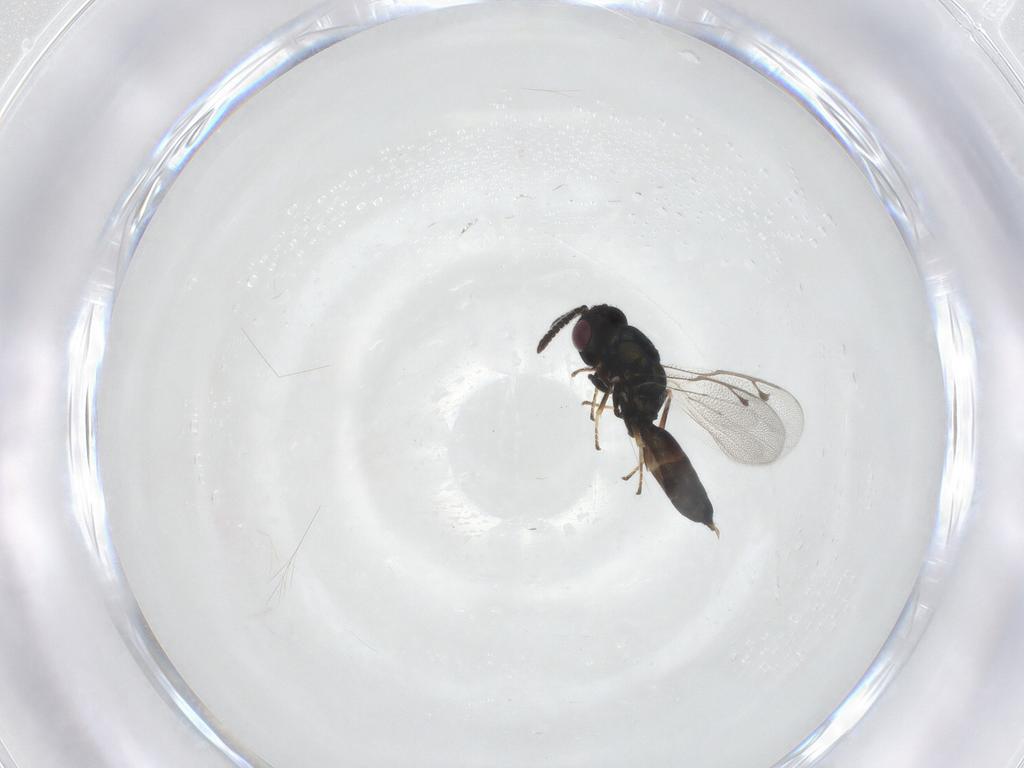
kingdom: Animalia
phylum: Arthropoda
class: Insecta
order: Hymenoptera
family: Pteromalidae
